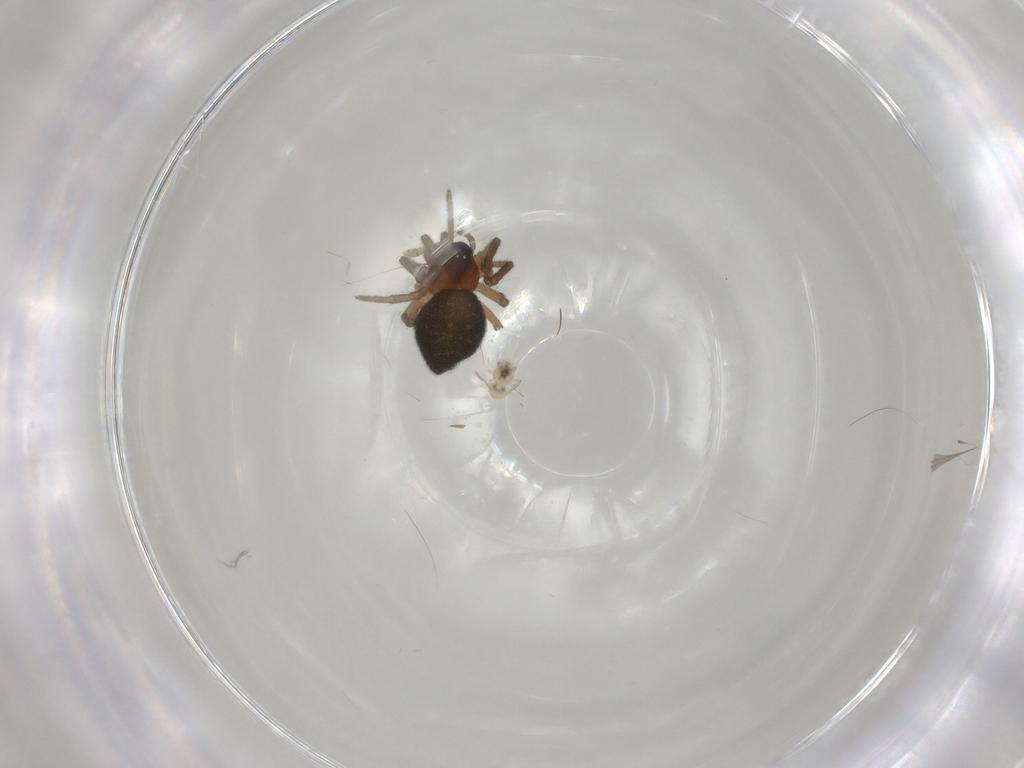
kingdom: Animalia
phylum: Arthropoda
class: Arachnida
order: Araneae
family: Linyphiidae
